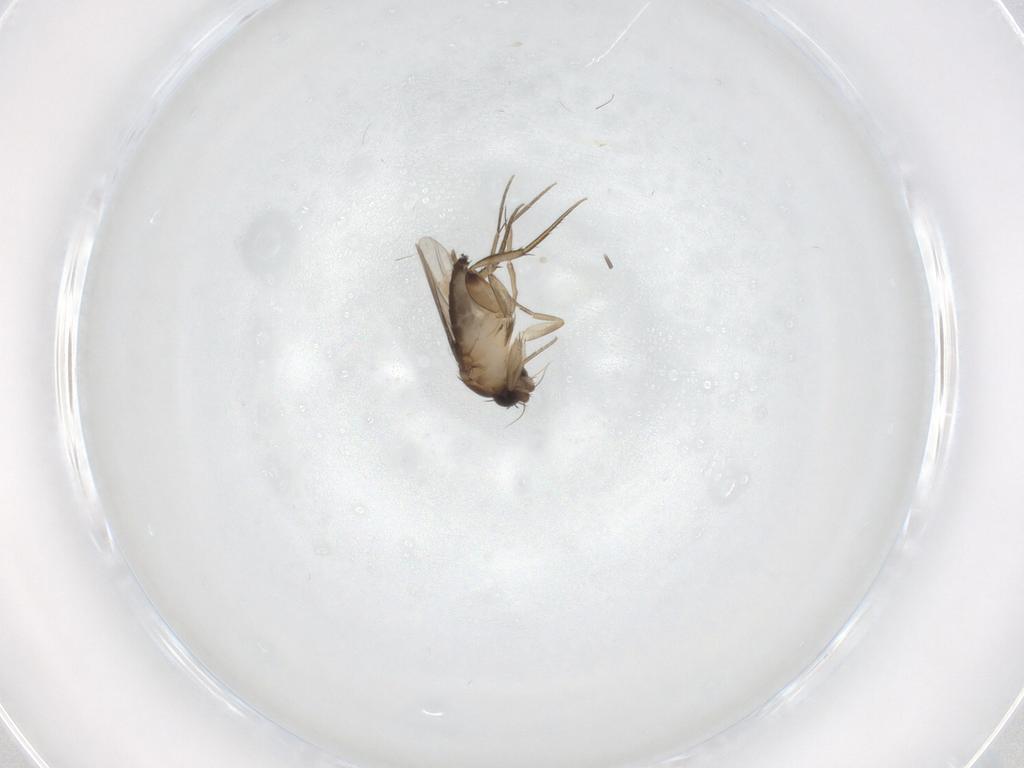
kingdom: Animalia
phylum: Arthropoda
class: Insecta
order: Diptera
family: Phoridae
